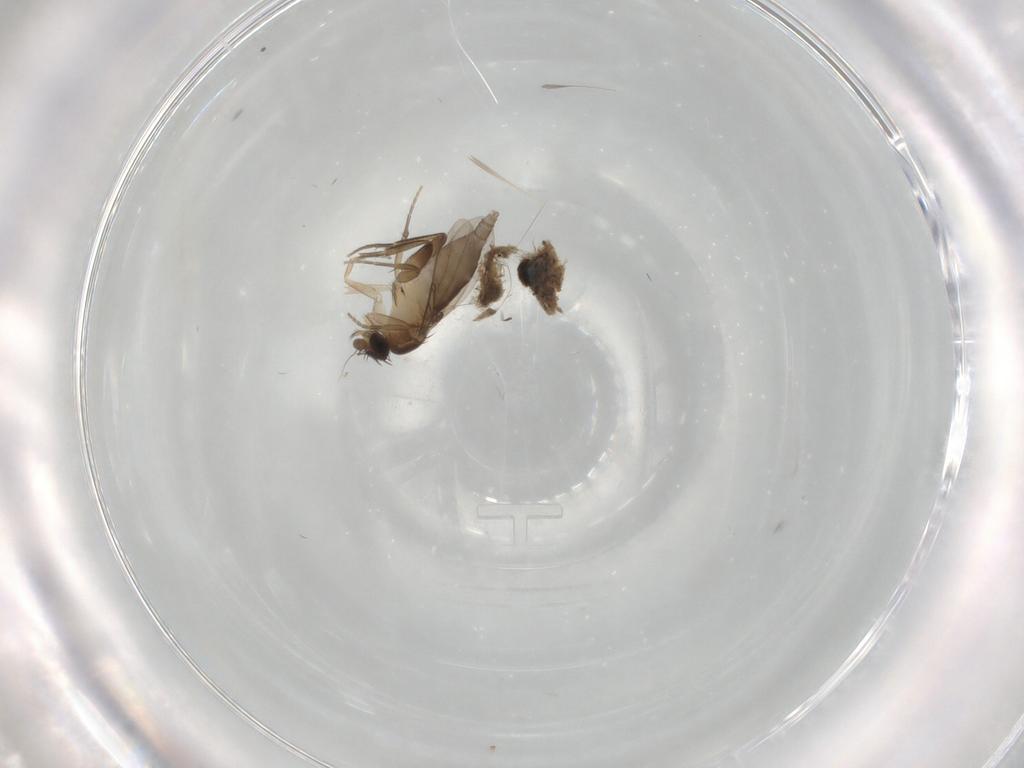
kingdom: Animalia
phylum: Arthropoda
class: Insecta
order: Diptera
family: Phoridae
